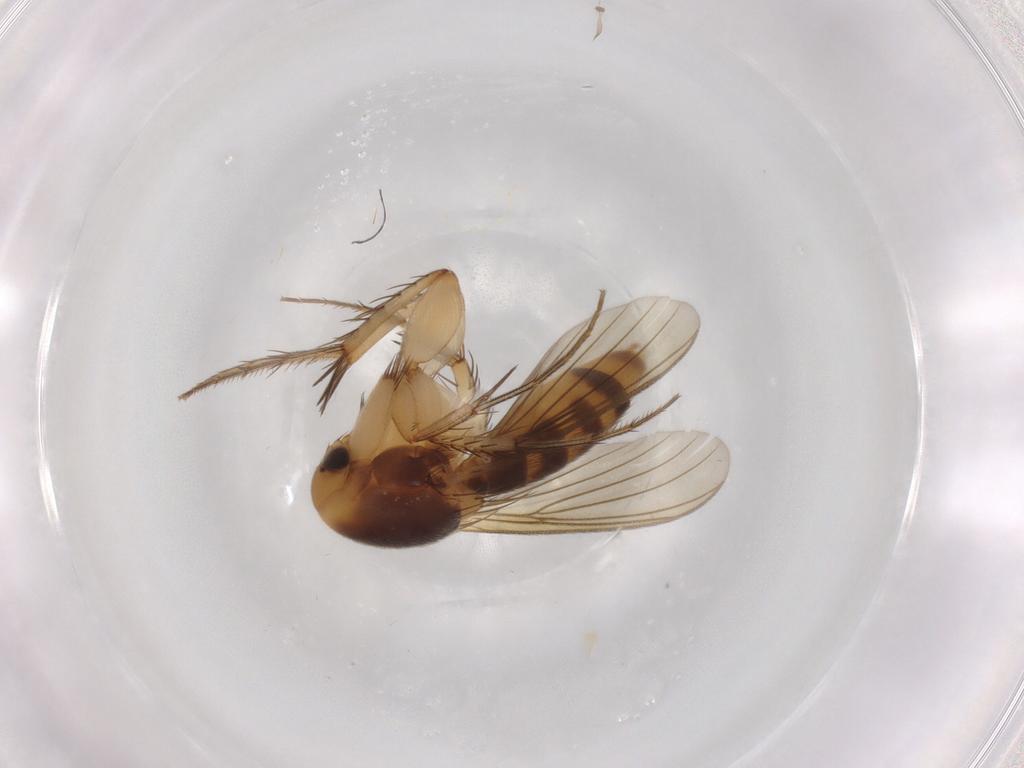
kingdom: Animalia
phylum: Arthropoda
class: Insecta
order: Diptera
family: Mycetophilidae
